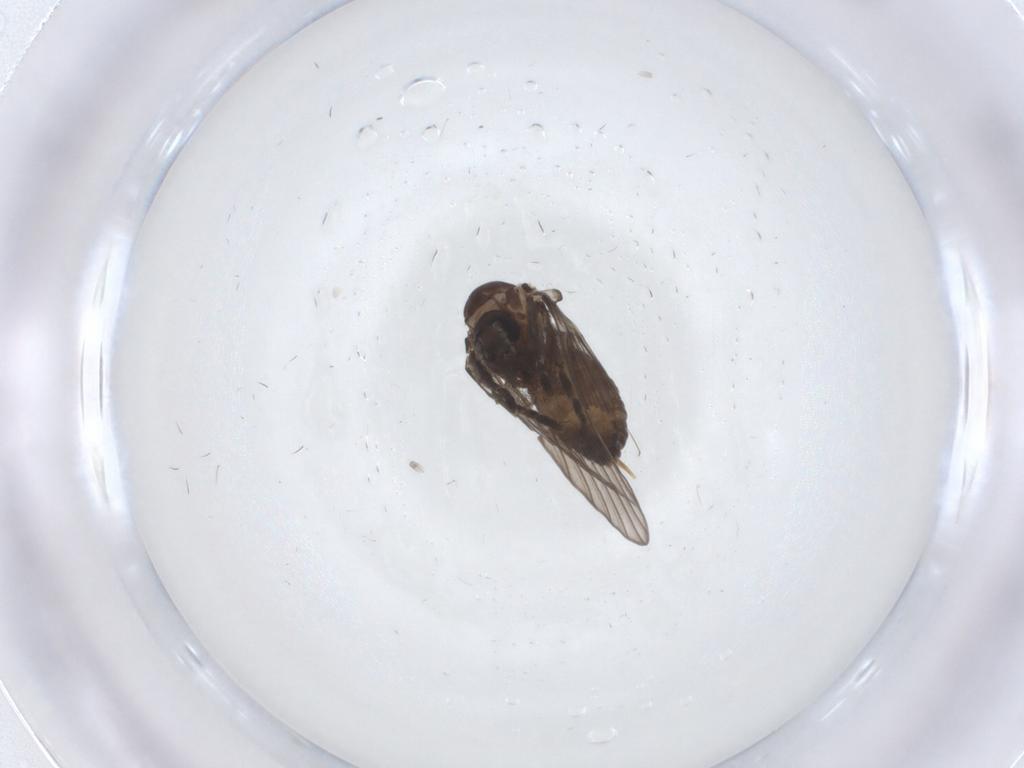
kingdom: Animalia
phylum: Arthropoda
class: Insecta
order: Diptera
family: Psychodidae
